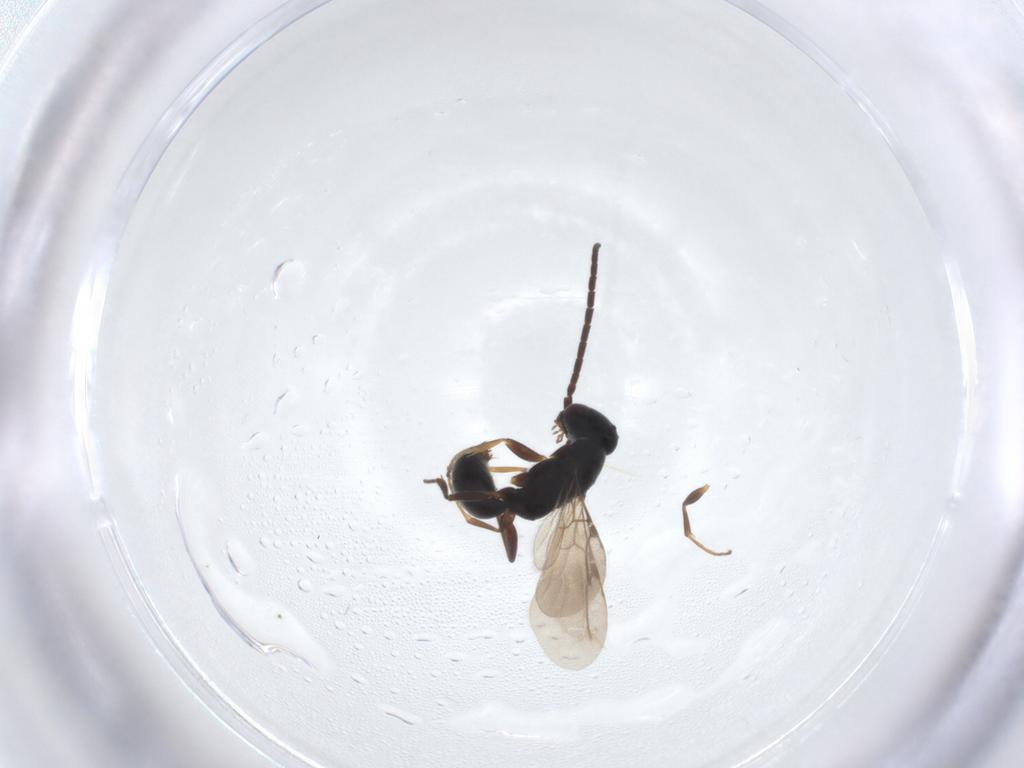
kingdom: Animalia
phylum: Arthropoda
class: Insecta
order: Hymenoptera
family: Bethylidae
